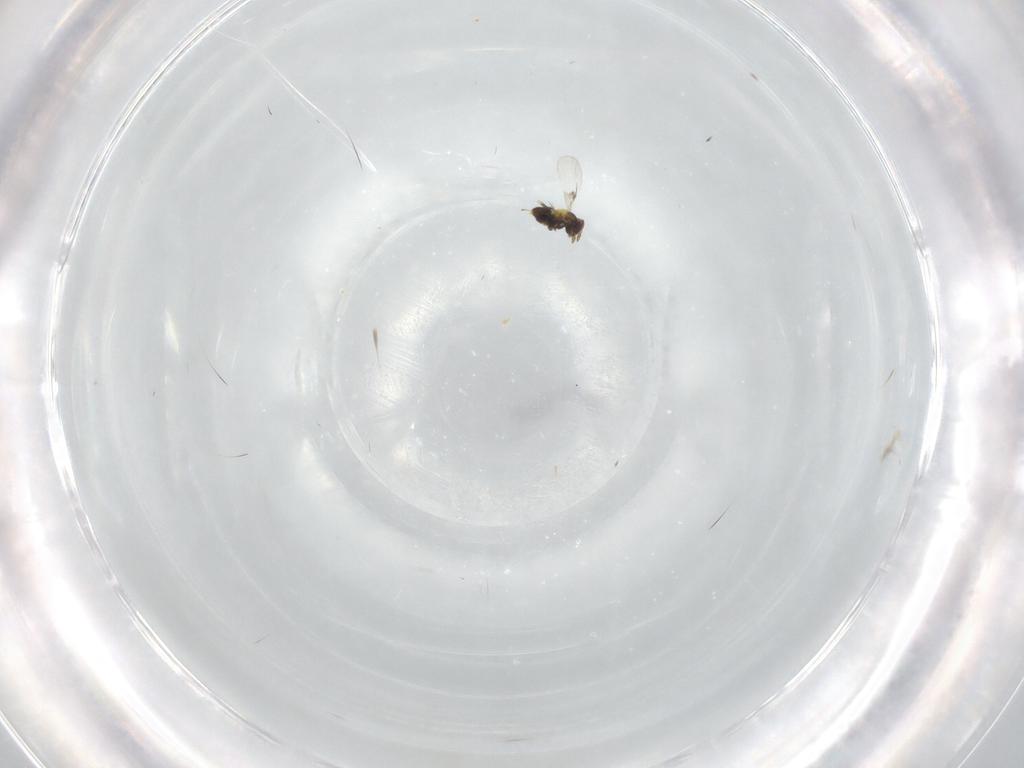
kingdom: Animalia
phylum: Arthropoda
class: Insecta
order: Hymenoptera
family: Trichogrammatidae
